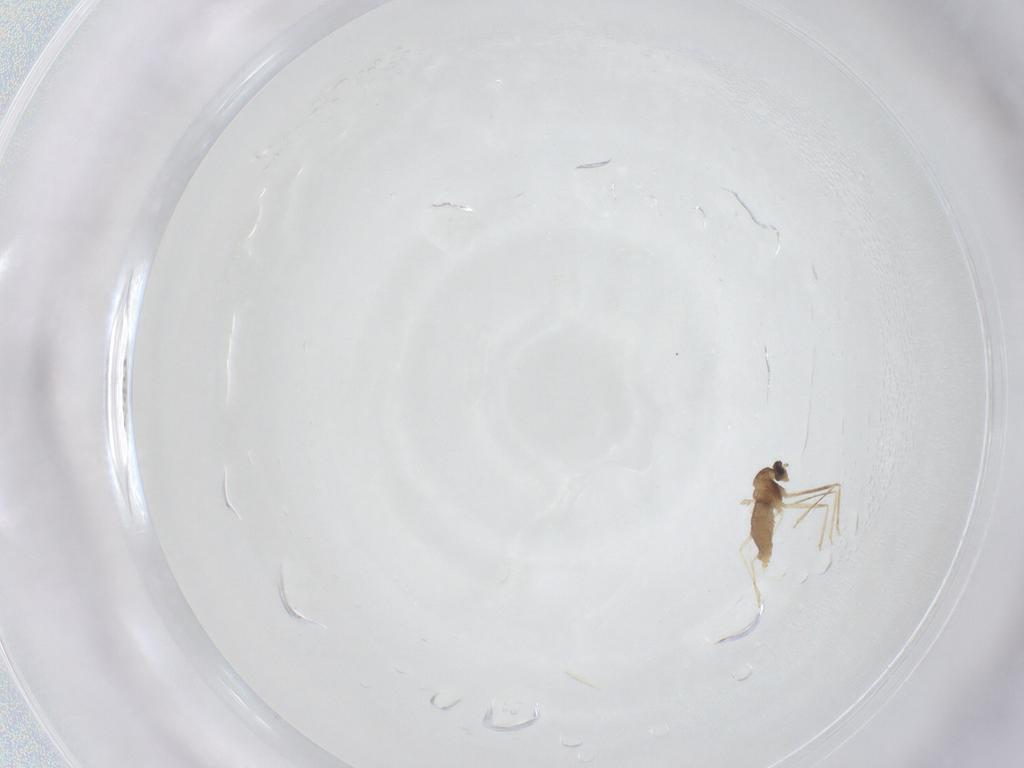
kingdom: Animalia
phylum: Arthropoda
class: Insecta
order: Diptera
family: Cecidomyiidae
